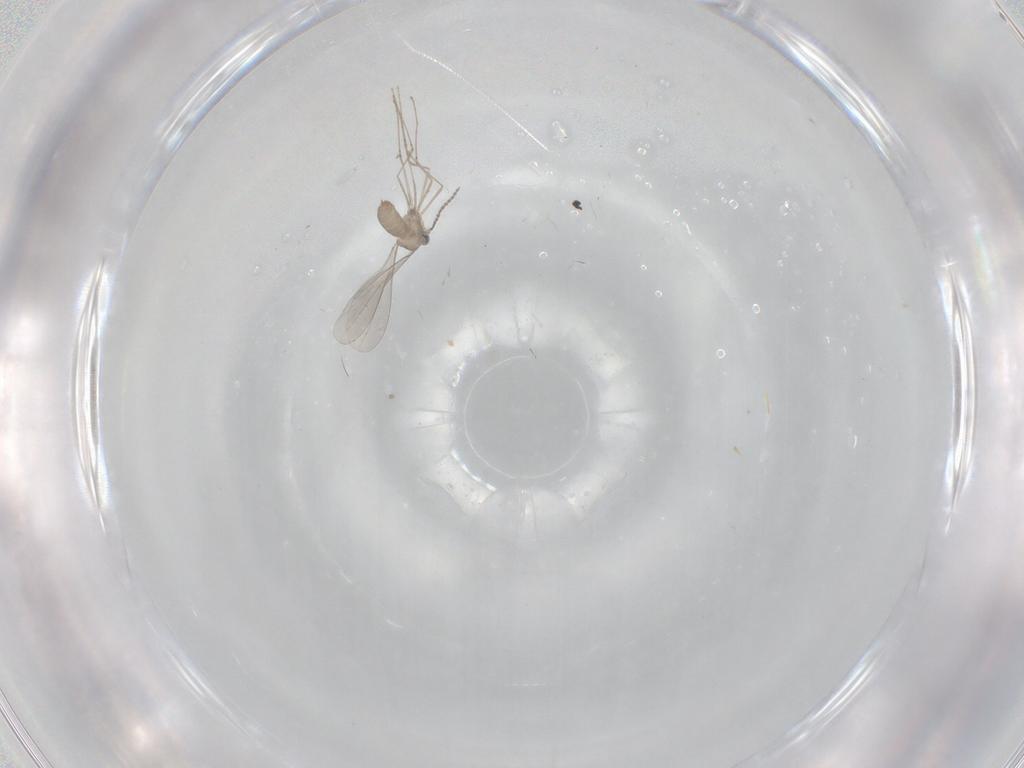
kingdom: Animalia
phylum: Arthropoda
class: Insecta
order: Diptera
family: Cecidomyiidae
